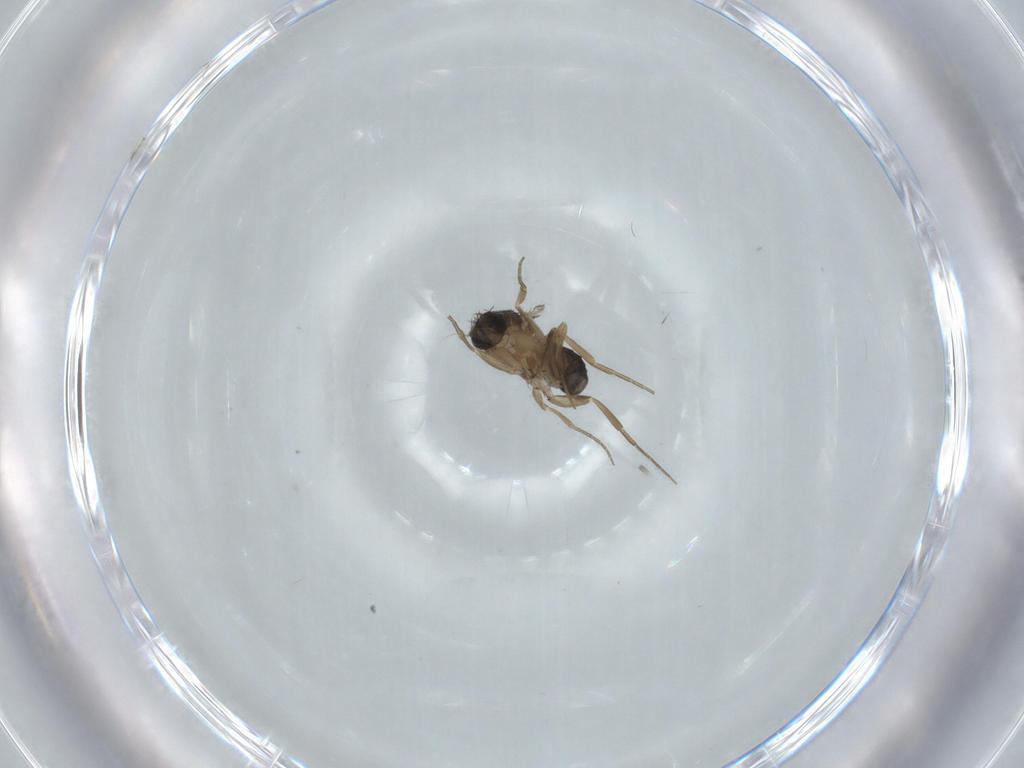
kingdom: Animalia
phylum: Arthropoda
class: Insecta
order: Diptera
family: Phoridae
